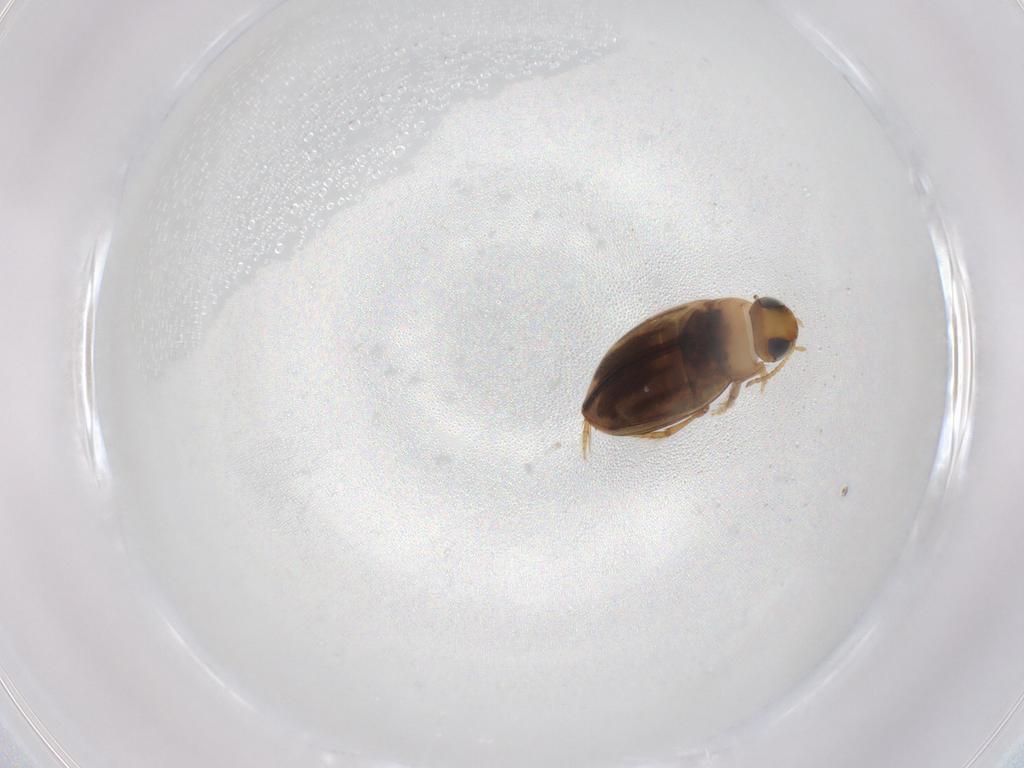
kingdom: Animalia
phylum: Arthropoda
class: Insecta
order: Coleoptera
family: Dytiscidae
